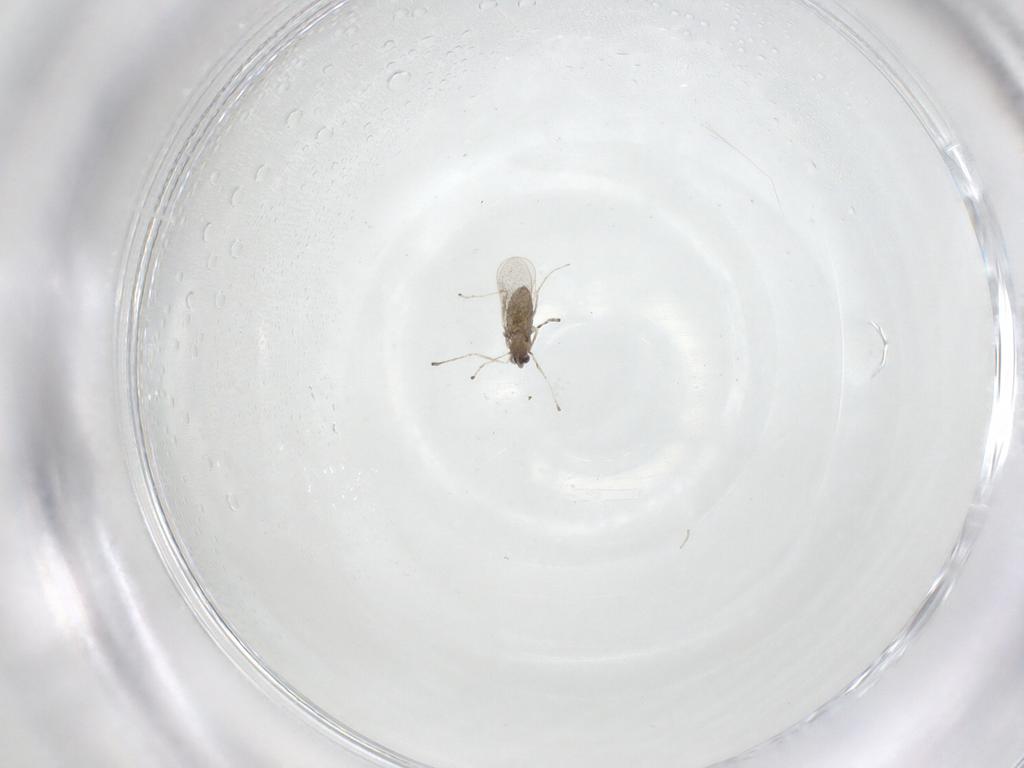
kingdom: Animalia
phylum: Arthropoda
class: Insecta
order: Diptera
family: Cecidomyiidae
